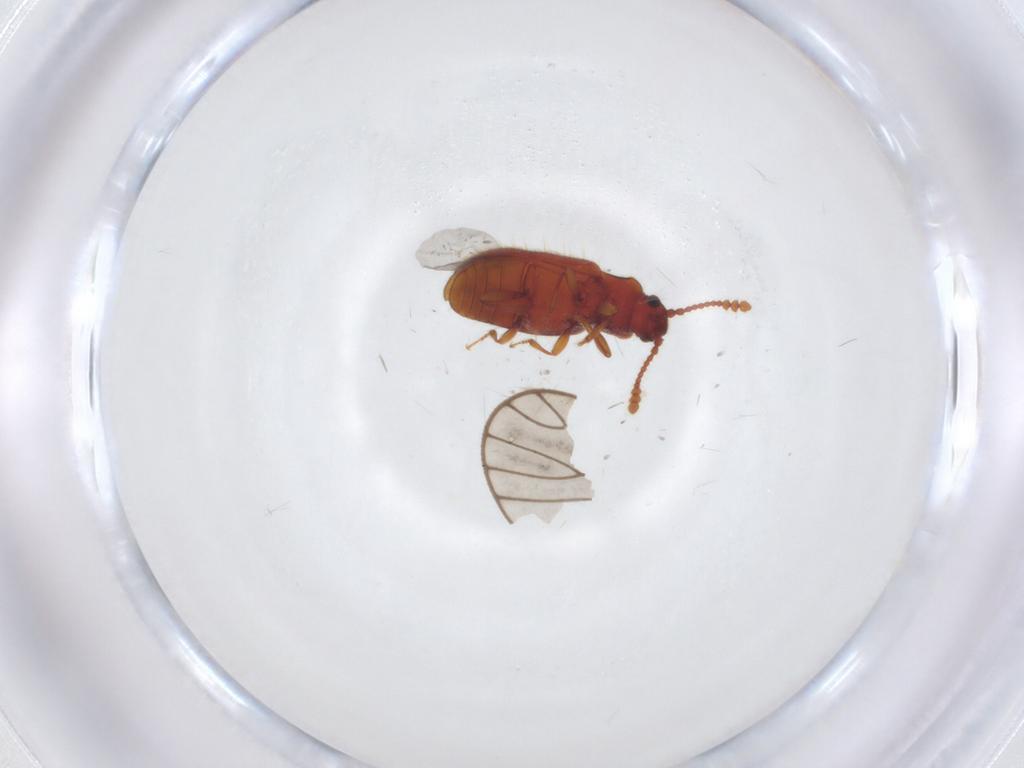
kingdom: Animalia
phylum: Arthropoda
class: Insecta
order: Coleoptera
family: Cryptophagidae
